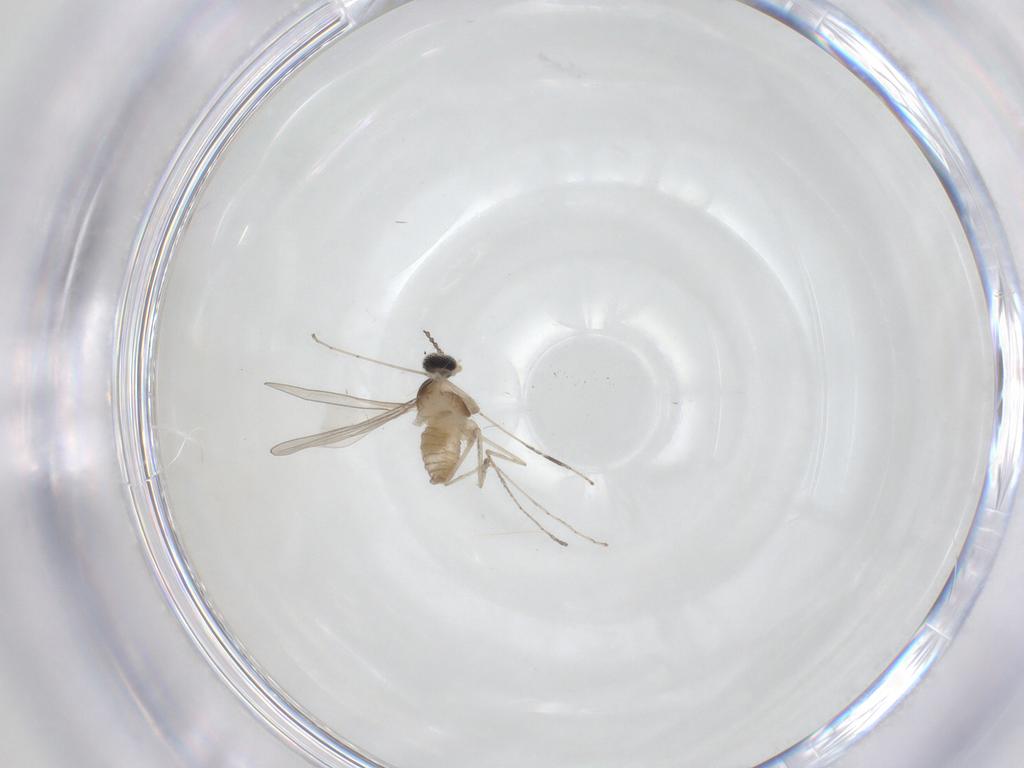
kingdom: Animalia
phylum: Arthropoda
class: Insecta
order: Diptera
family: Cecidomyiidae
